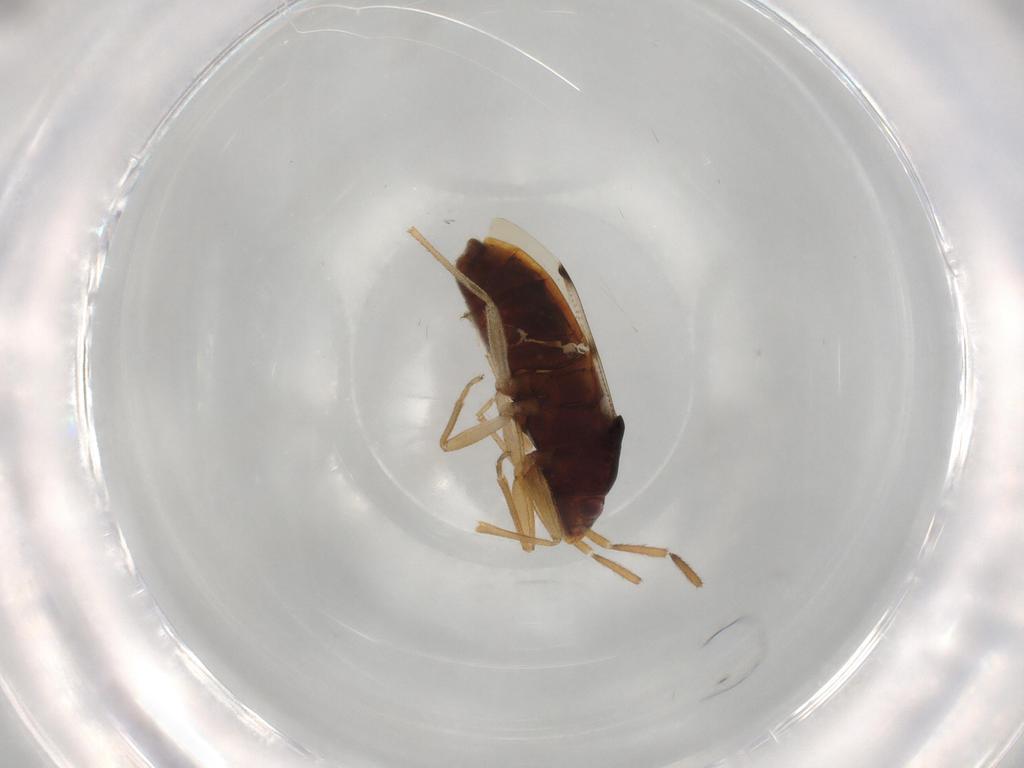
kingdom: Animalia
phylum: Arthropoda
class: Insecta
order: Hemiptera
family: Rhyparochromidae
